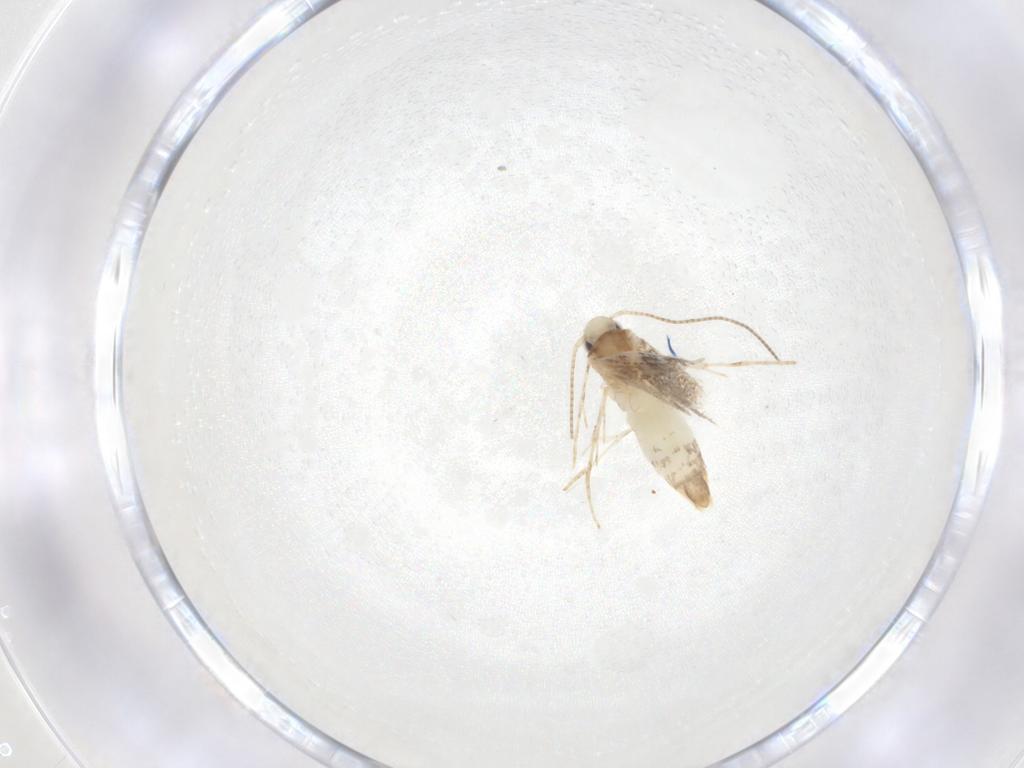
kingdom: Animalia
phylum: Arthropoda
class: Insecta
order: Lepidoptera
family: Gracillariidae
